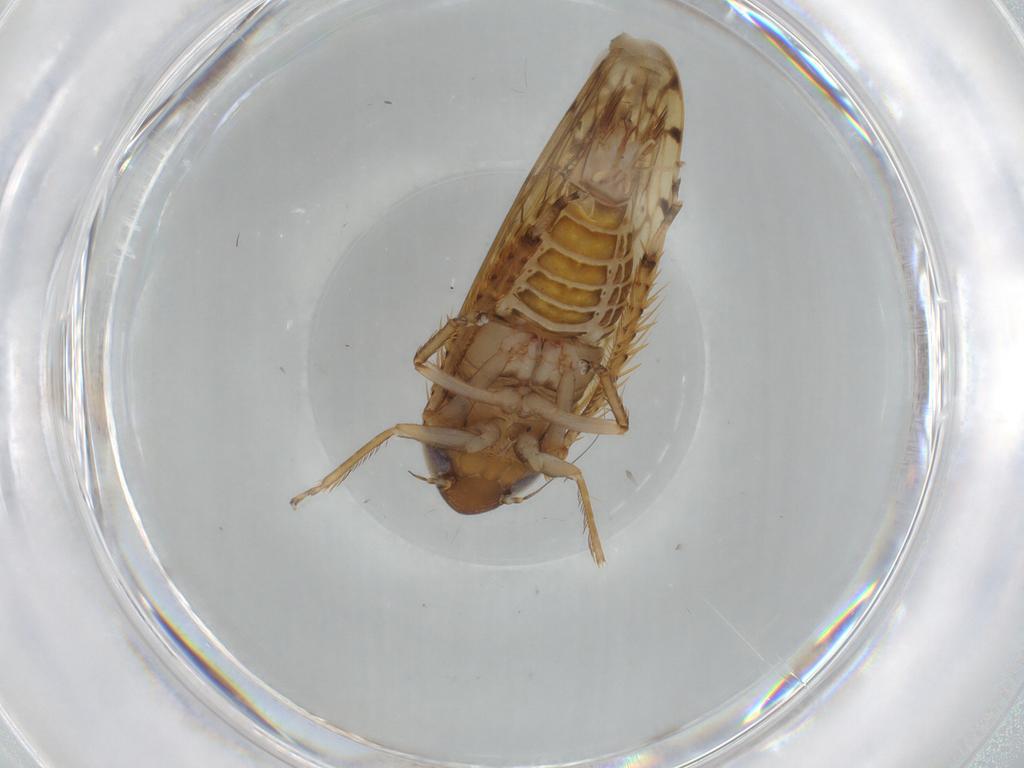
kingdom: Animalia
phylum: Arthropoda
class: Insecta
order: Hemiptera
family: Cicadellidae
